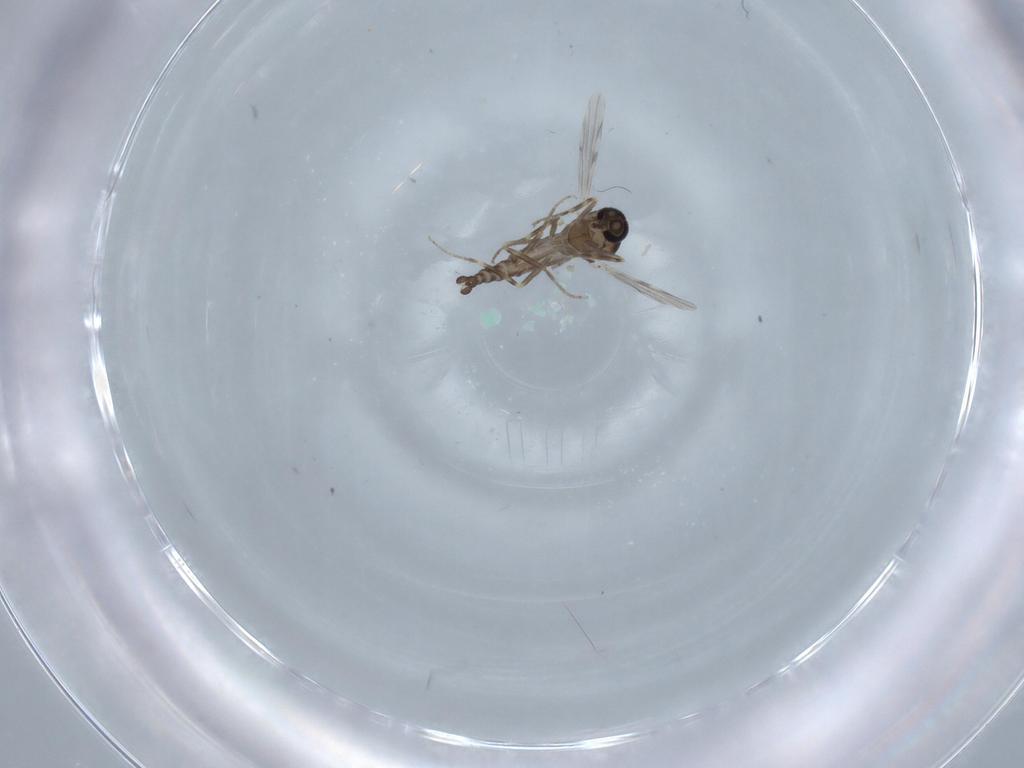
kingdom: Animalia
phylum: Arthropoda
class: Insecta
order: Diptera
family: Ceratopogonidae
